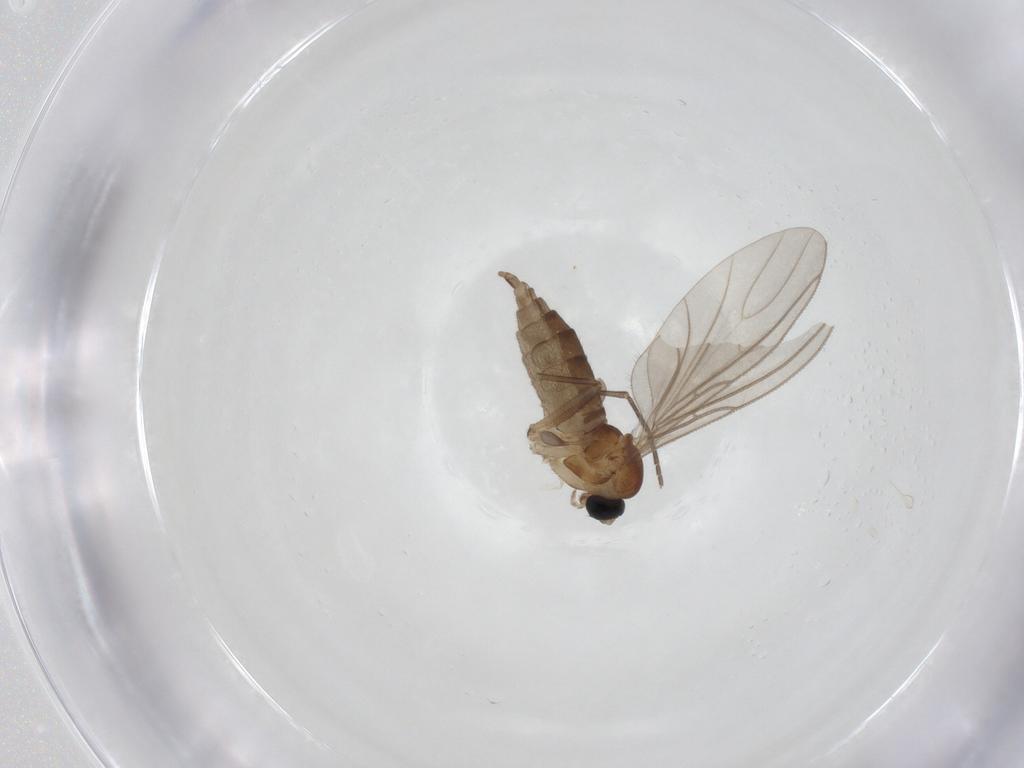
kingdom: Animalia
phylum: Arthropoda
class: Insecta
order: Diptera
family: Sciaridae
